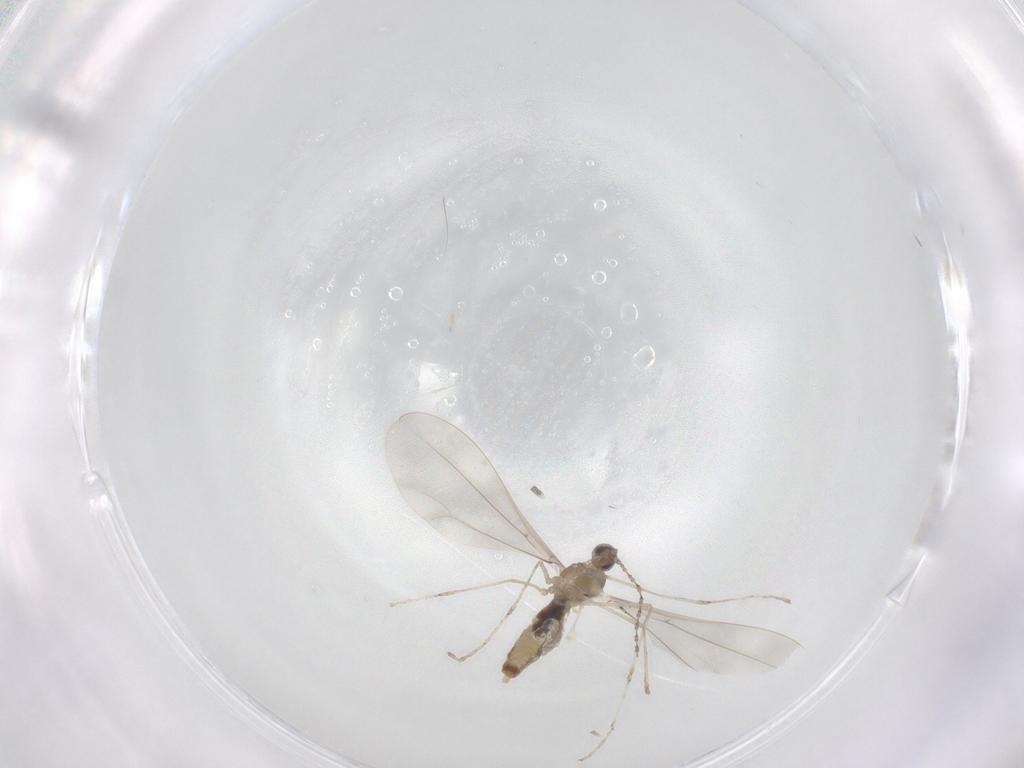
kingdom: Animalia
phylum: Arthropoda
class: Insecta
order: Diptera
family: Cecidomyiidae
